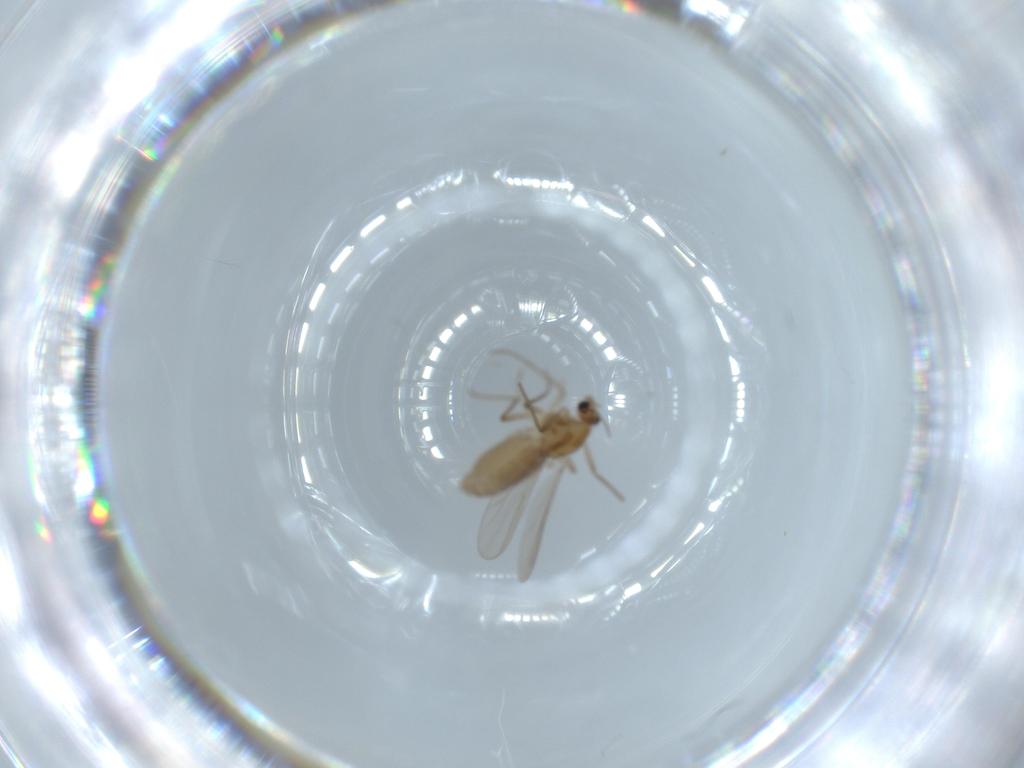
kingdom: Animalia
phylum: Arthropoda
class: Insecta
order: Diptera
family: Chironomidae
